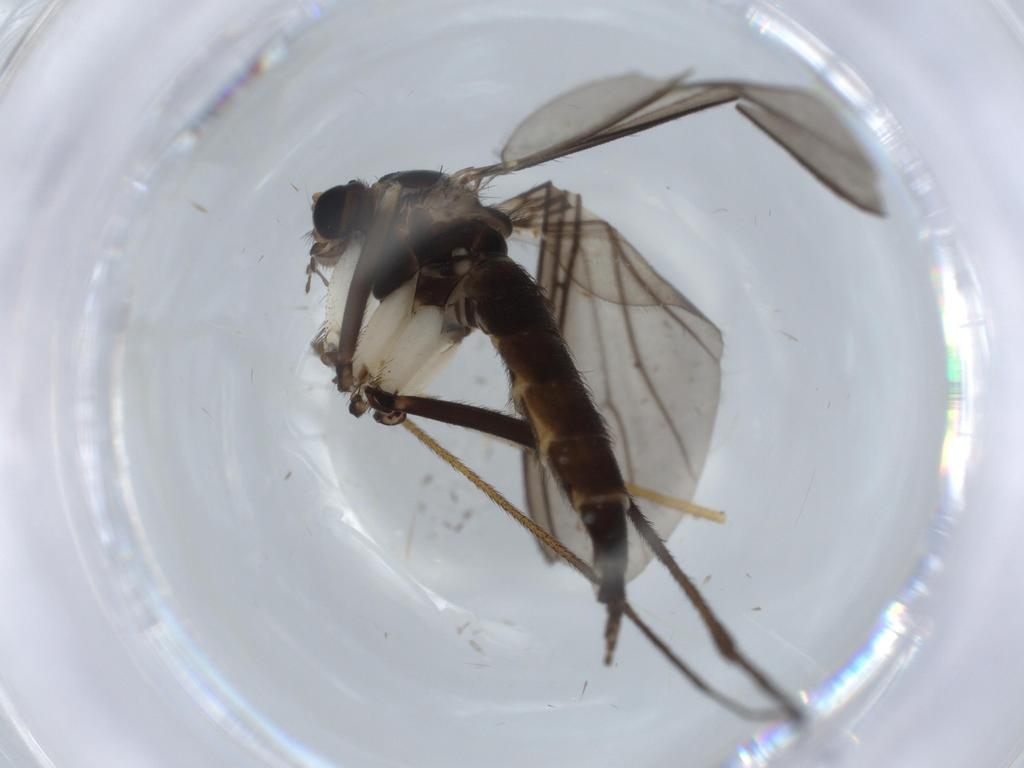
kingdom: Animalia
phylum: Arthropoda
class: Insecta
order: Diptera
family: Sciaridae
